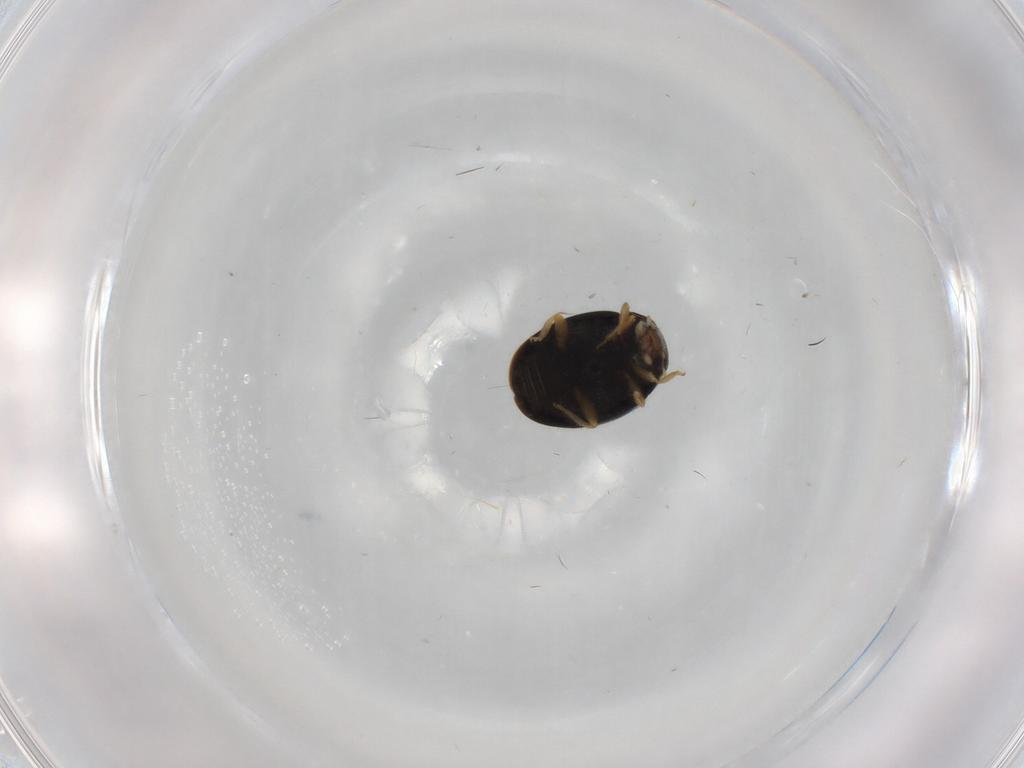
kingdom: Animalia
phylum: Arthropoda
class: Insecta
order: Coleoptera
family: Coccinellidae
